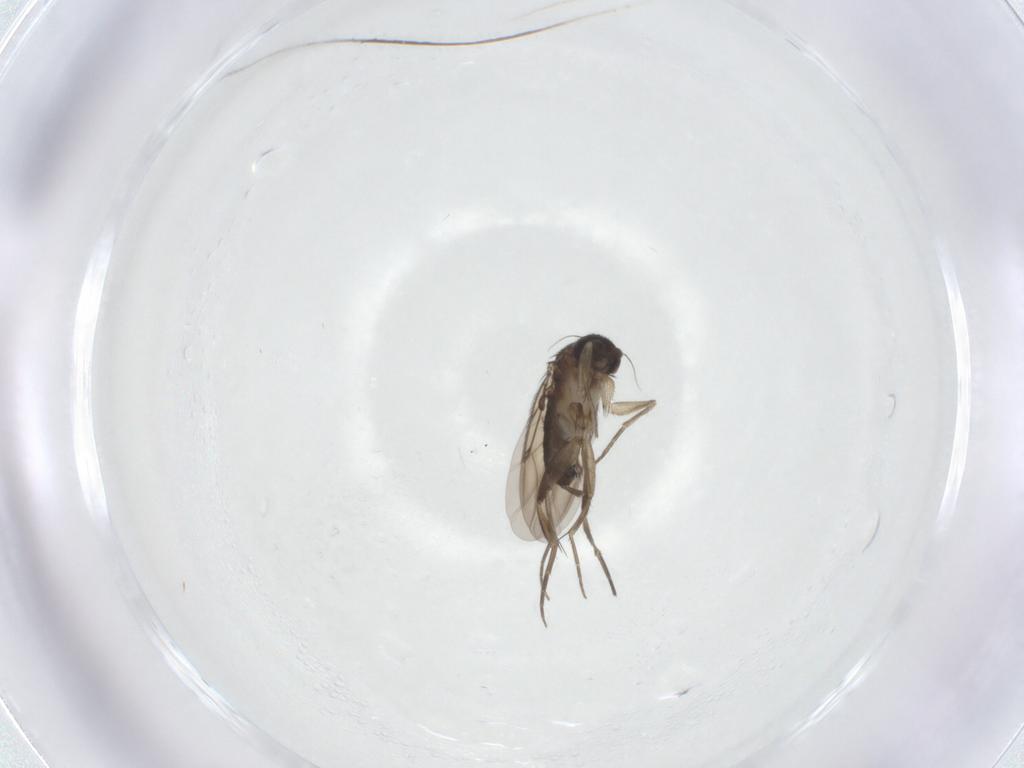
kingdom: Animalia
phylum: Arthropoda
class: Insecta
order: Diptera
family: Phoridae
